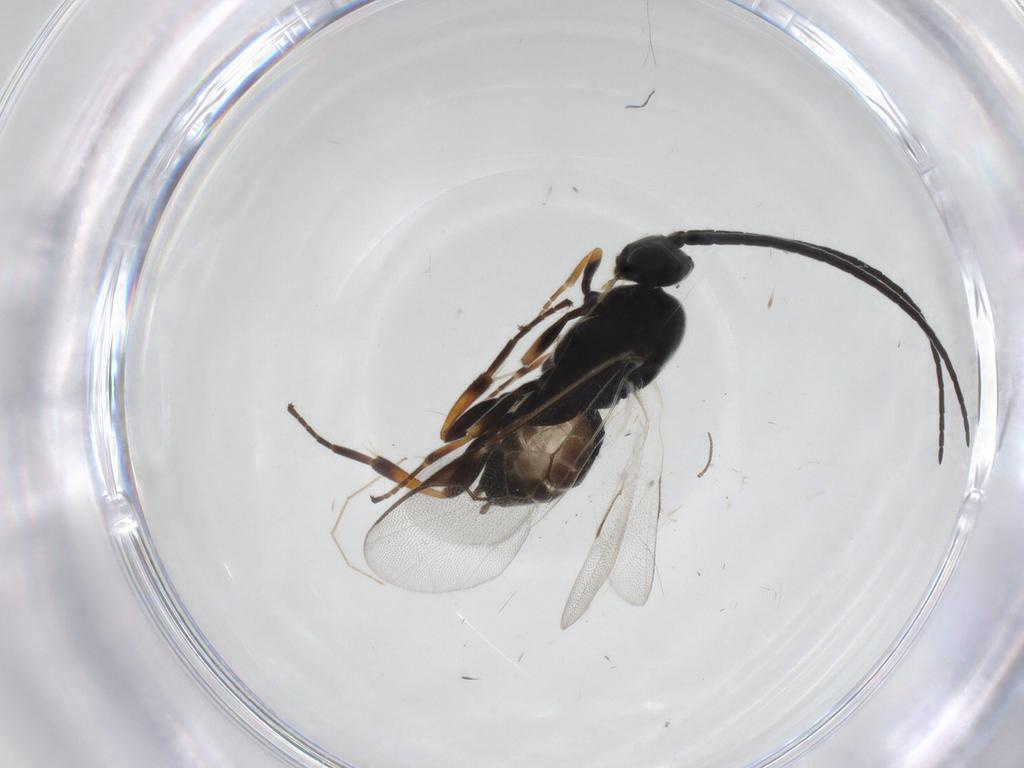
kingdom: Animalia
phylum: Arthropoda
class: Insecta
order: Hymenoptera
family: Braconidae
